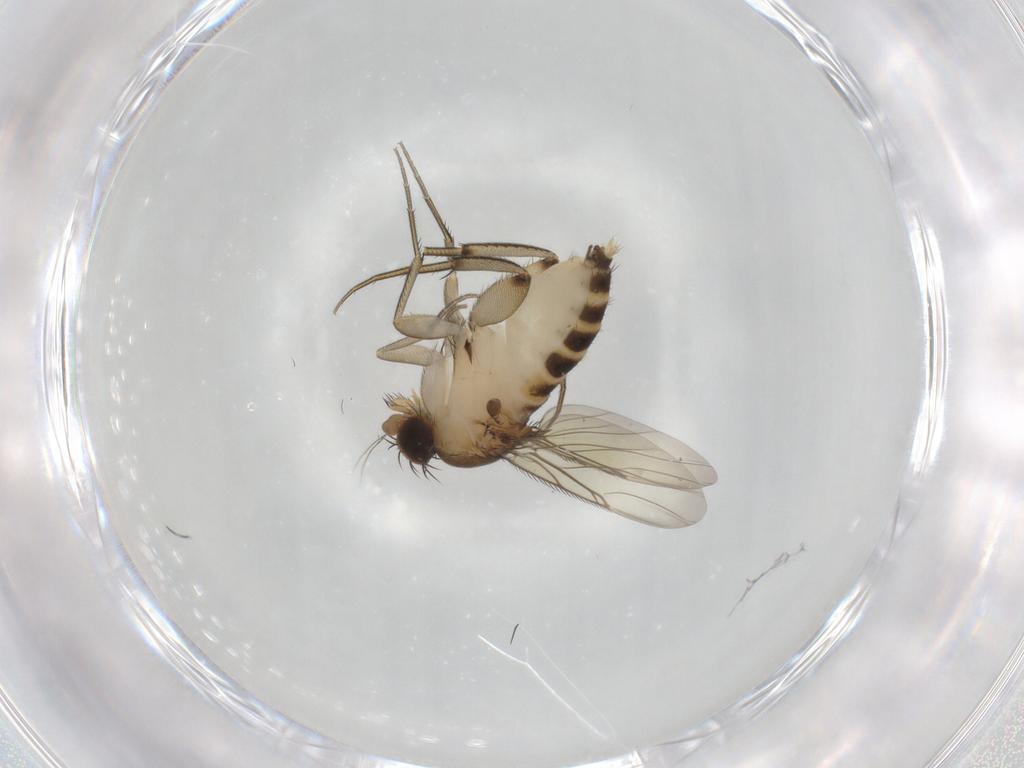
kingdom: Animalia
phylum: Arthropoda
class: Insecta
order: Diptera
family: Phoridae
